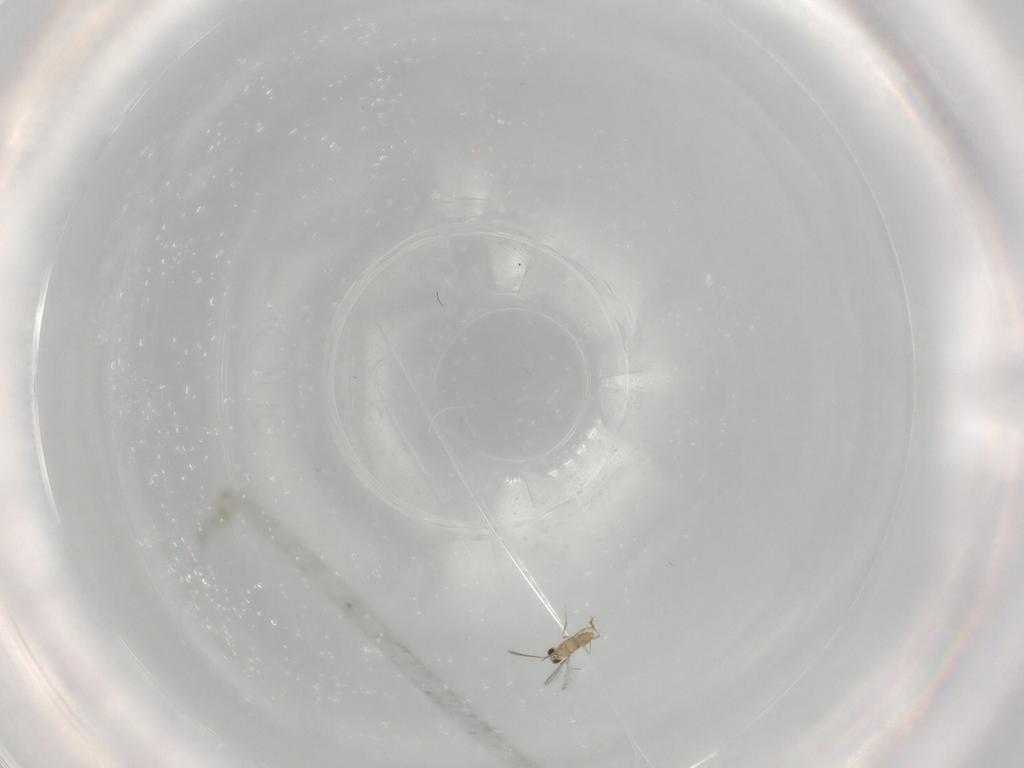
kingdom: Animalia
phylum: Arthropoda
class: Insecta
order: Hymenoptera
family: Mymaridae
